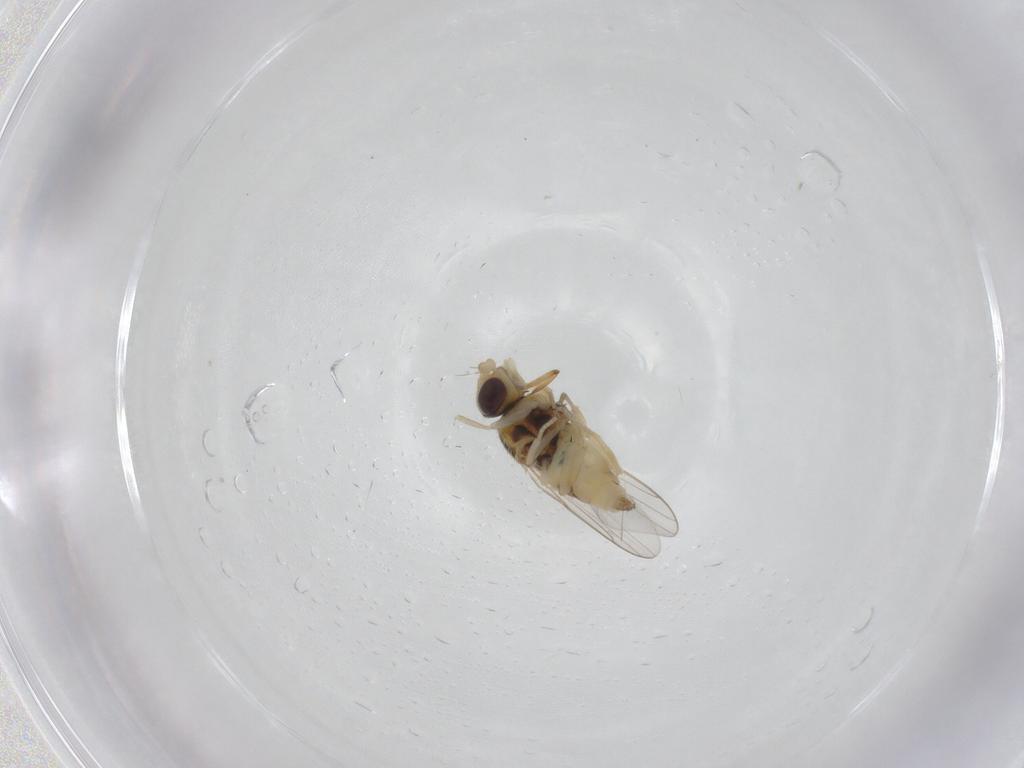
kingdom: Animalia
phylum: Arthropoda
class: Insecta
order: Diptera
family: Chloropidae
